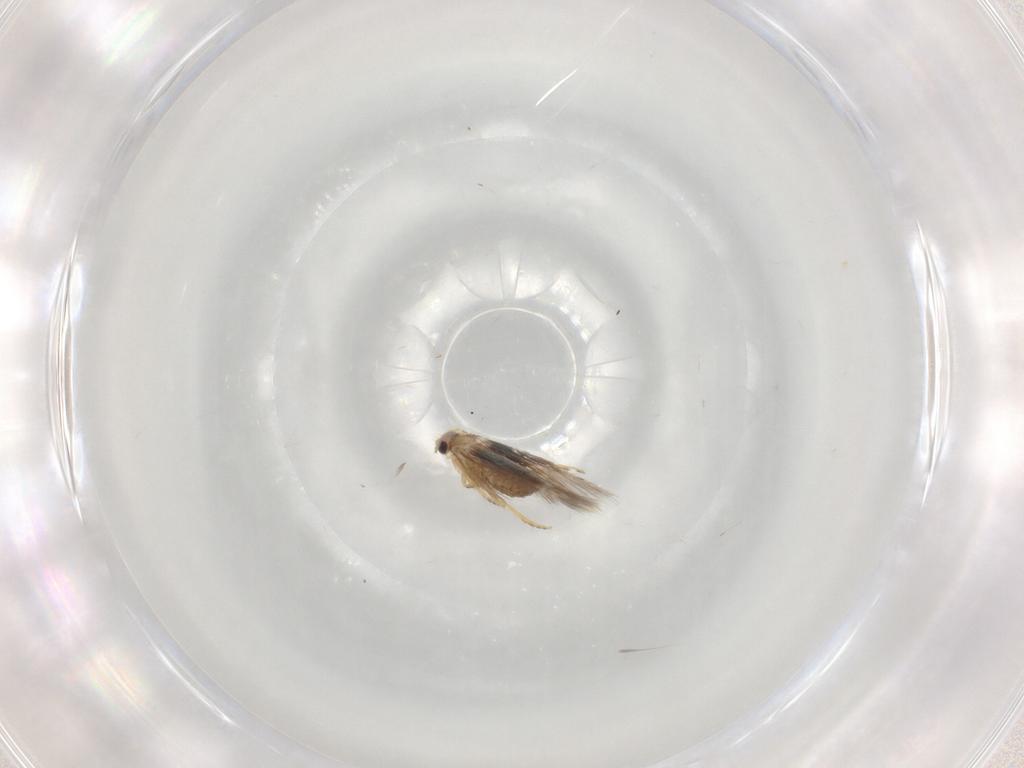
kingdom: Animalia
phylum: Arthropoda
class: Insecta
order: Lepidoptera
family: Nepticulidae
